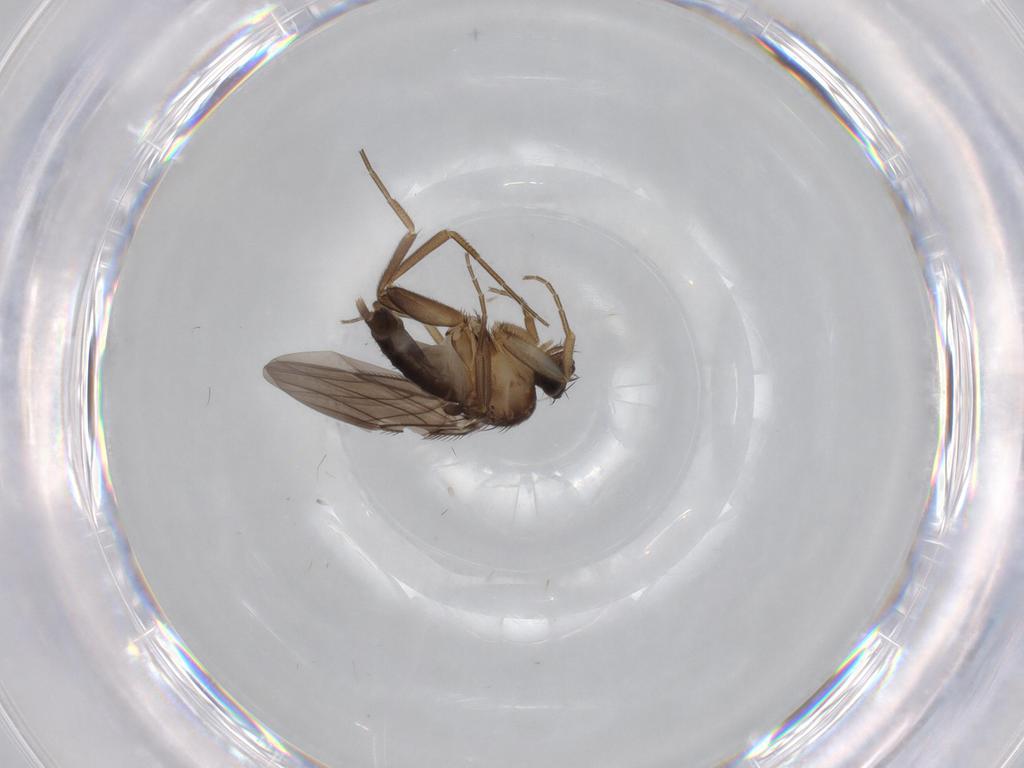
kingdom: Animalia
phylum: Arthropoda
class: Insecta
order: Diptera
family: Phoridae
